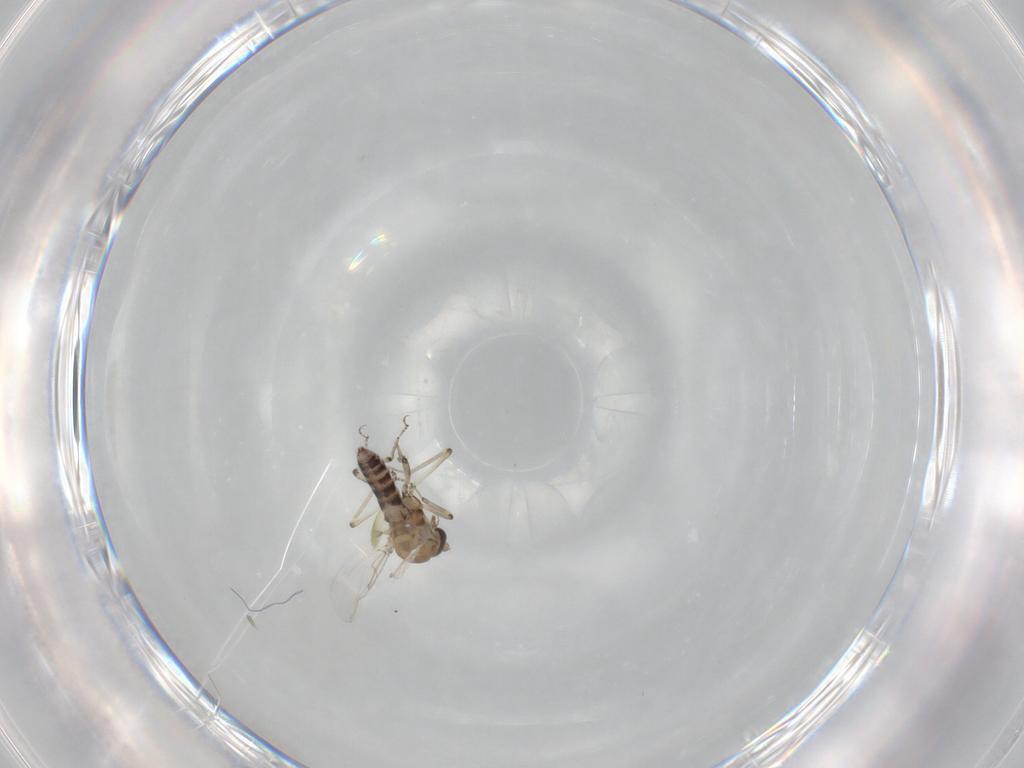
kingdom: Animalia
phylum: Arthropoda
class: Insecta
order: Diptera
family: Ceratopogonidae
